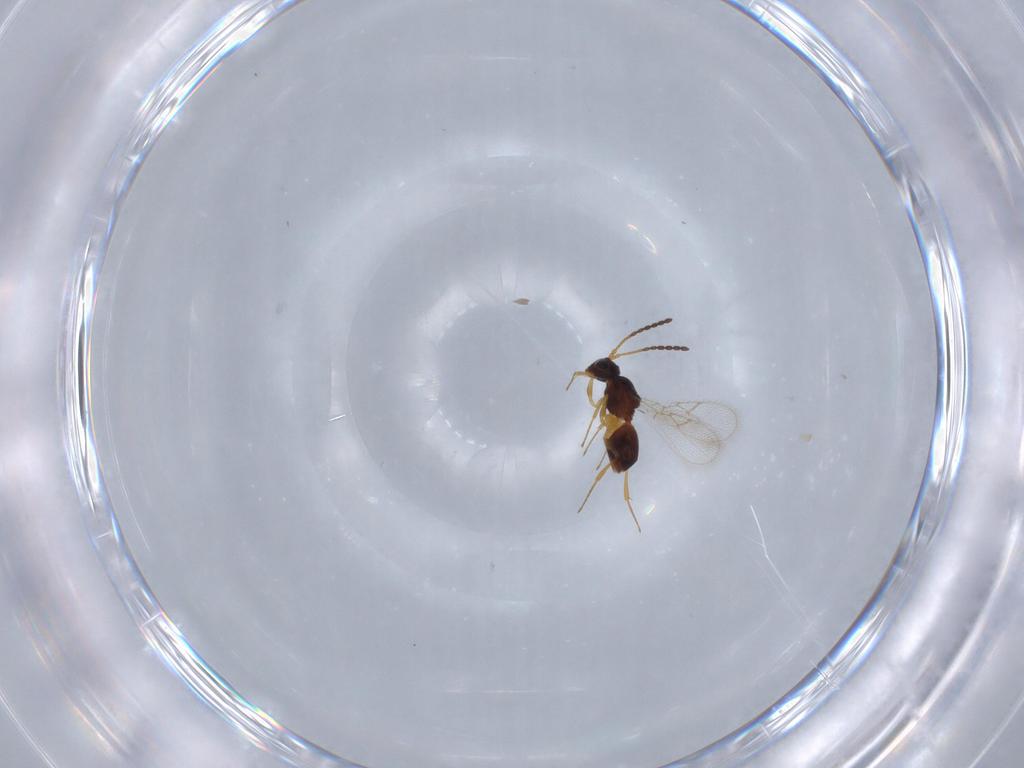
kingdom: Animalia
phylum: Arthropoda
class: Insecta
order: Hymenoptera
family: Figitidae
